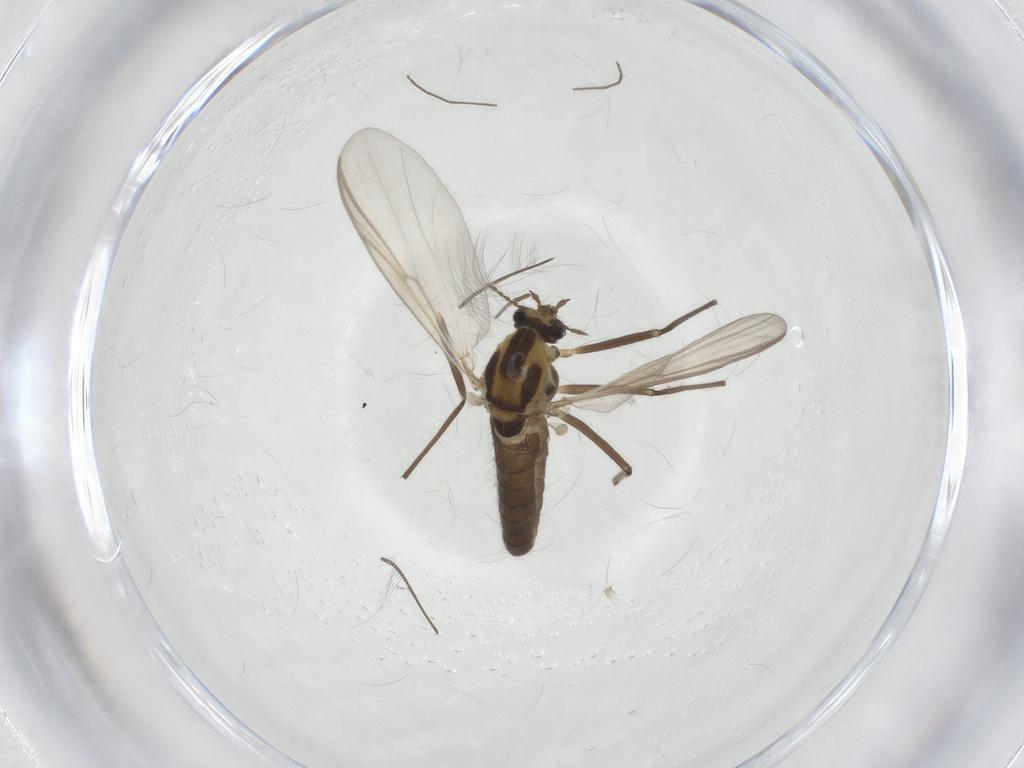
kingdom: Animalia
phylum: Arthropoda
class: Insecta
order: Diptera
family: Chironomidae
